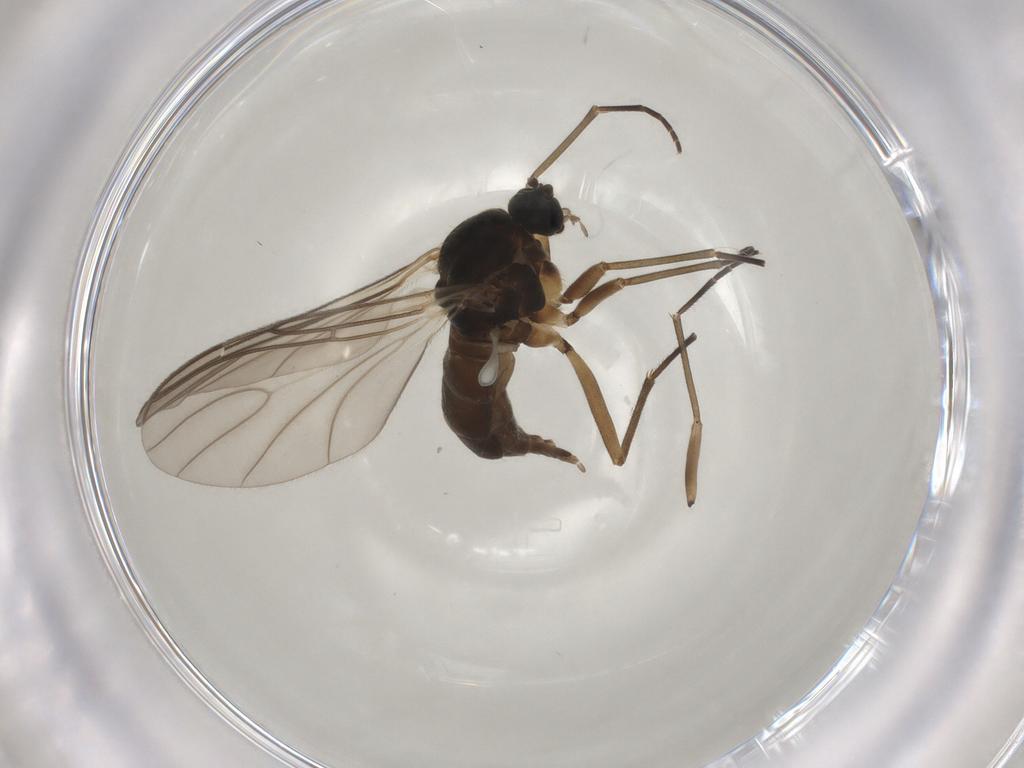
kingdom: Animalia
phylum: Arthropoda
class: Insecta
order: Diptera
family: Sciaridae
